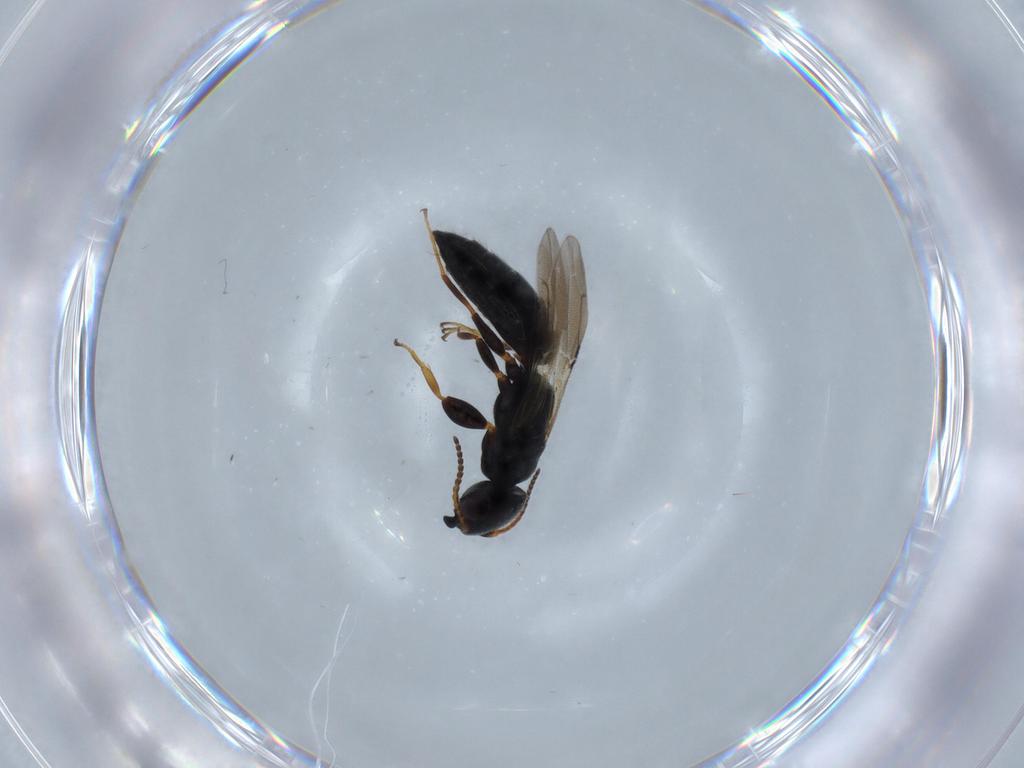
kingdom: Animalia
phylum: Arthropoda
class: Insecta
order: Hymenoptera
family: Bethylidae
